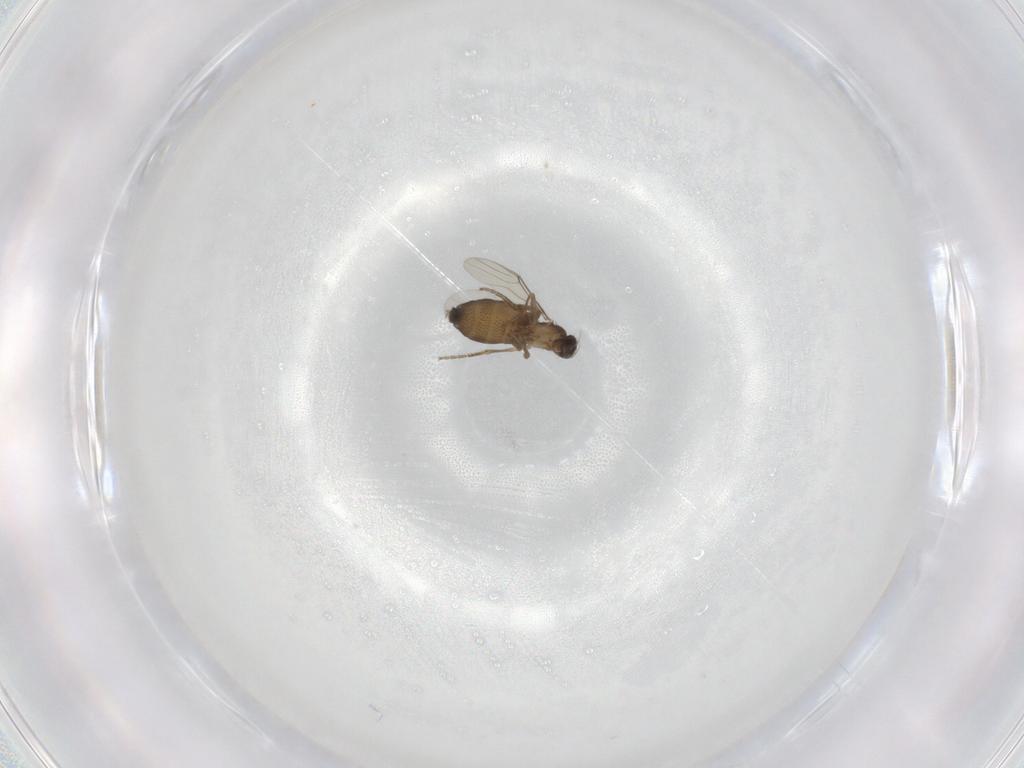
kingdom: Animalia
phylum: Arthropoda
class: Insecta
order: Diptera
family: Phoridae
